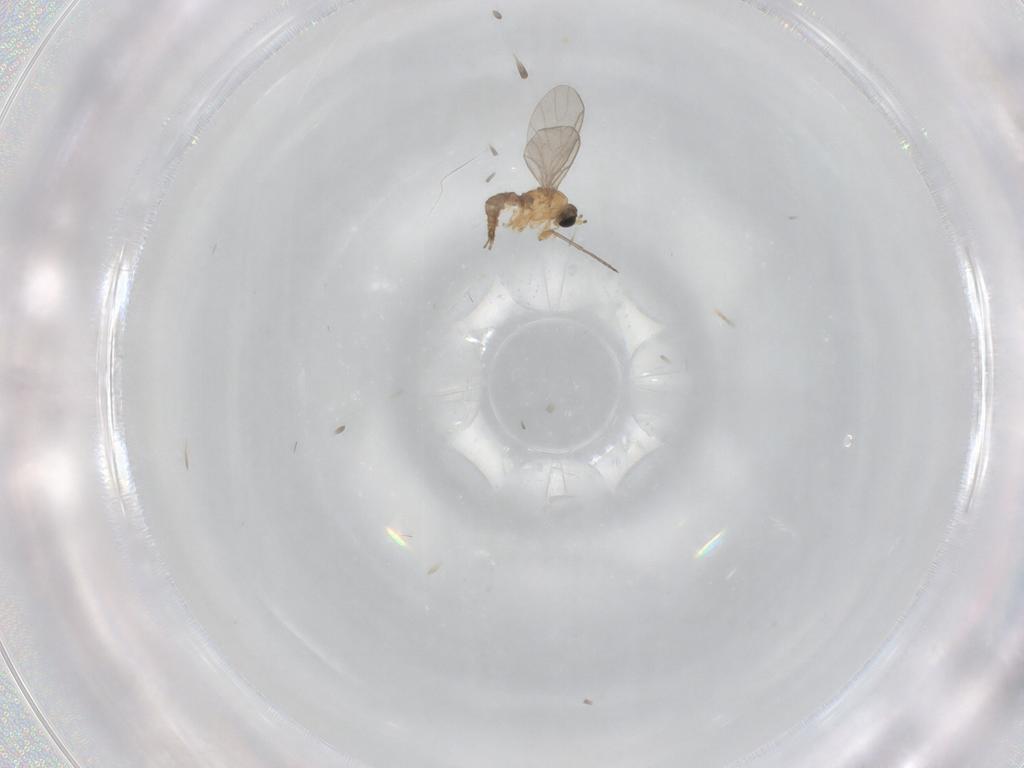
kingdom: Animalia
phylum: Arthropoda
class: Insecta
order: Diptera
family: Sciaridae
